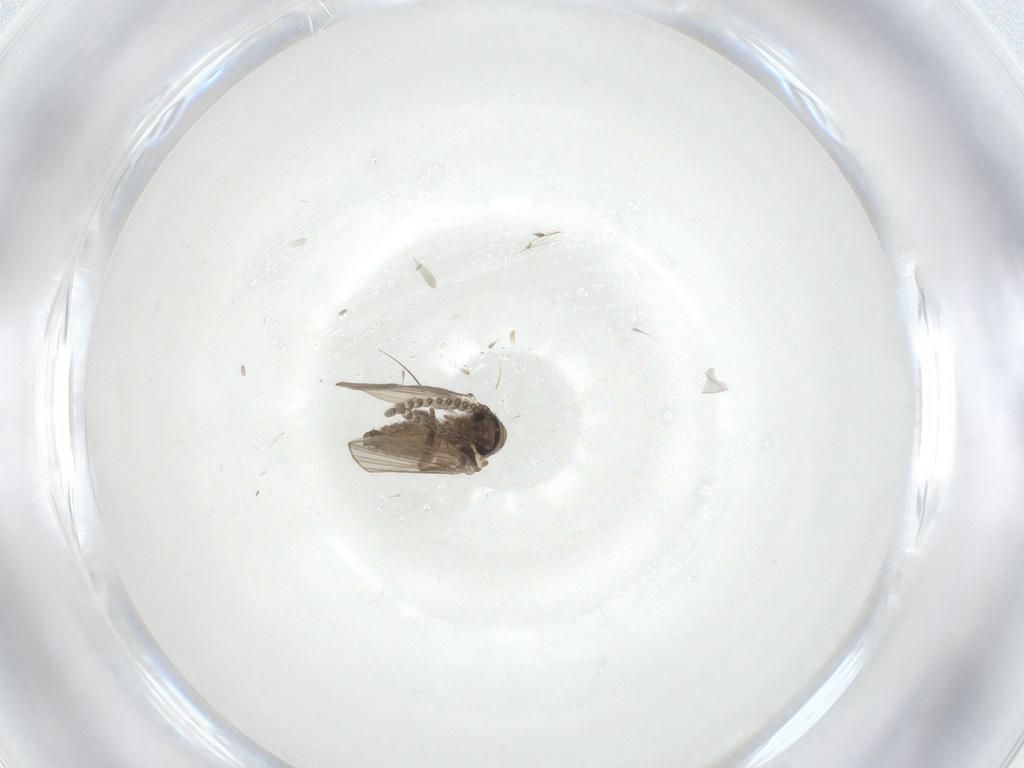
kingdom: Animalia
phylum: Arthropoda
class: Insecta
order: Diptera
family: Psychodidae
